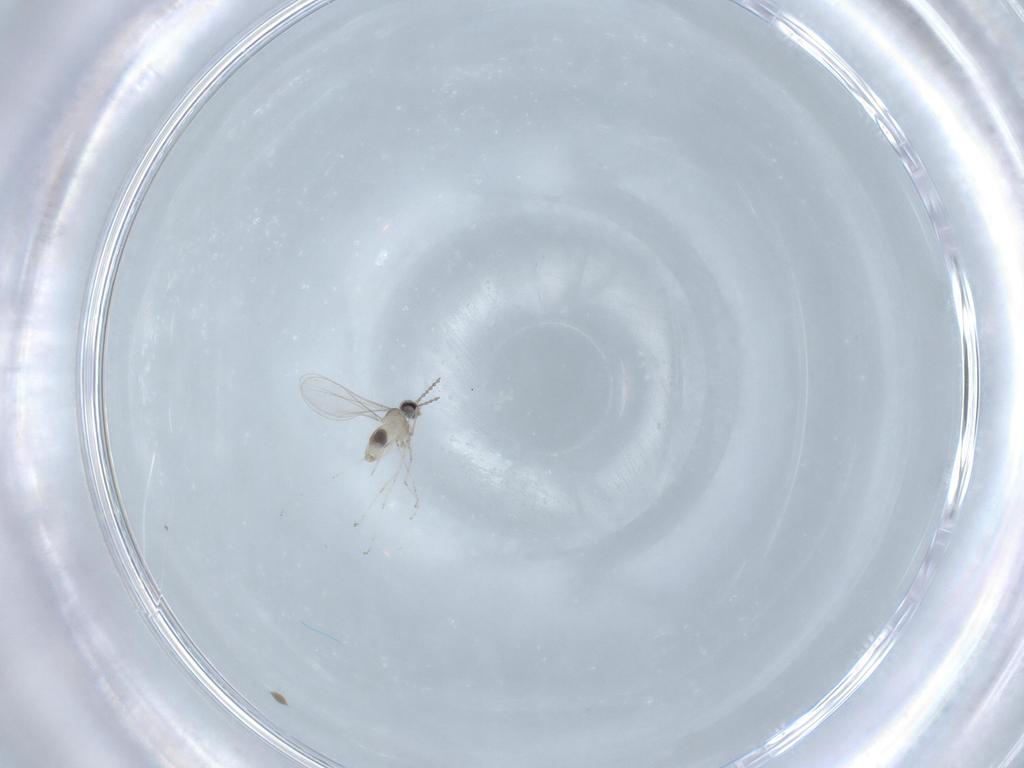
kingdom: Animalia
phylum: Arthropoda
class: Insecta
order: Diptera
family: Cecidomyiidae
